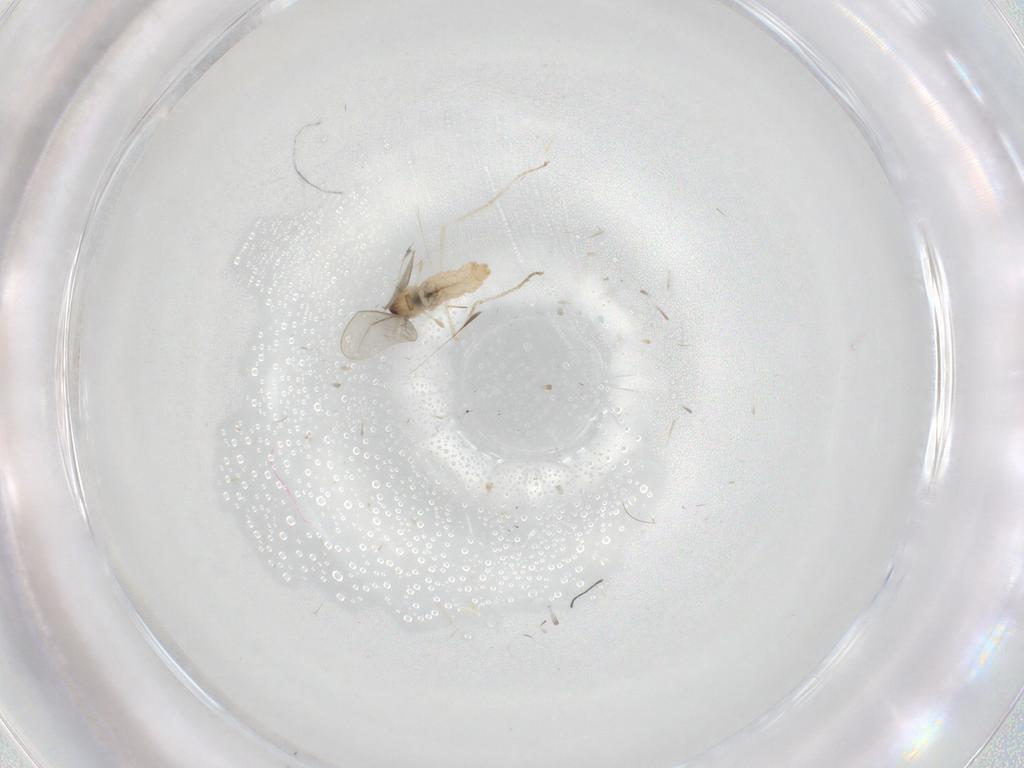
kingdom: Animalia
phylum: Arthropoda
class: Insecta
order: Diptera
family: Cecidomyiidae
